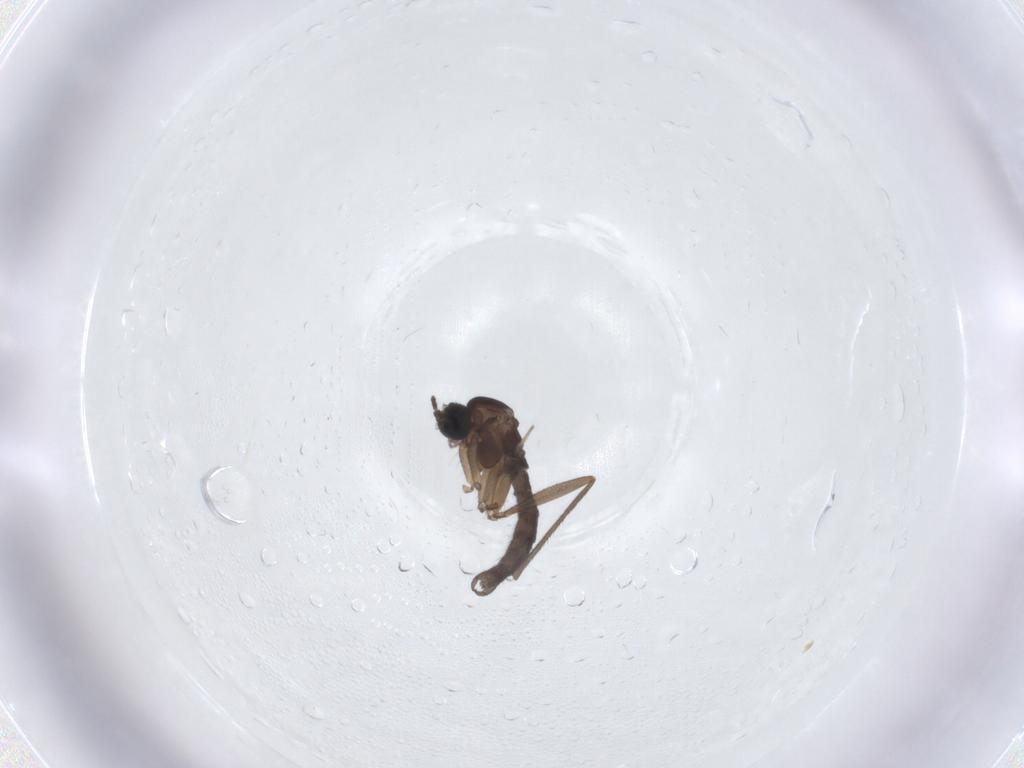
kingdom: Animalia
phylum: Arthropoda
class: Insecta
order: Diptera
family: Sciaridae
